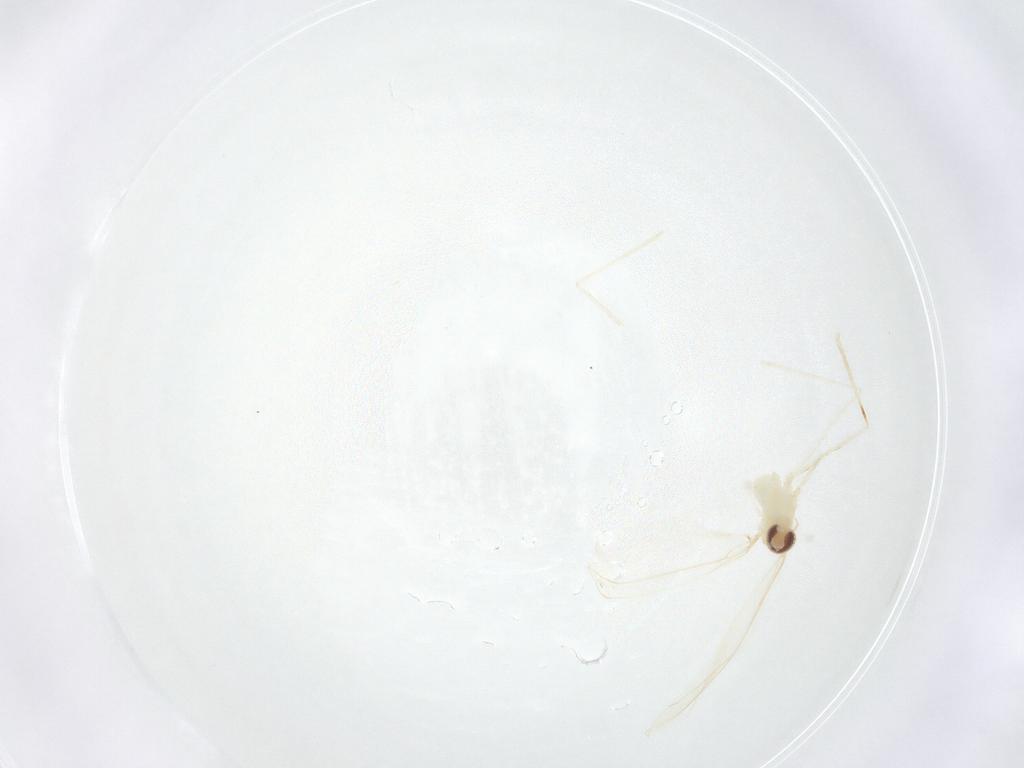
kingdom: Animalia
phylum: Arthropoda
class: Insecta
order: Diptera
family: Cecidomyiidae
